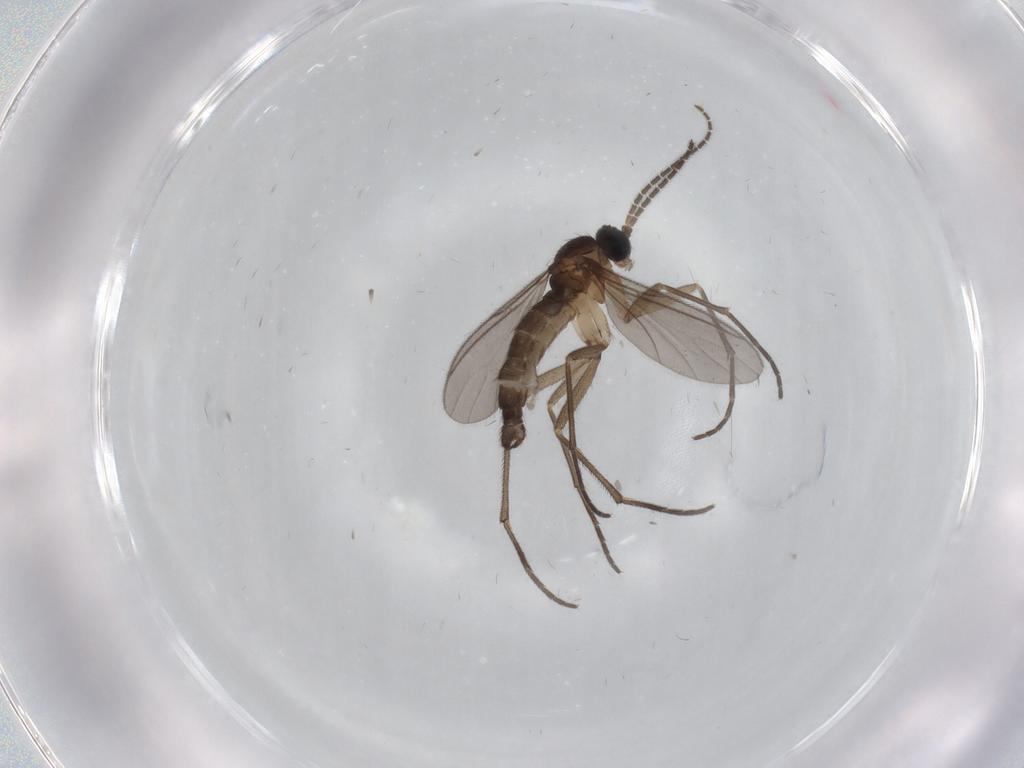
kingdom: Animalia
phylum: Arthropoda
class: Insecta
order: Diptera
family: Sciaridae
